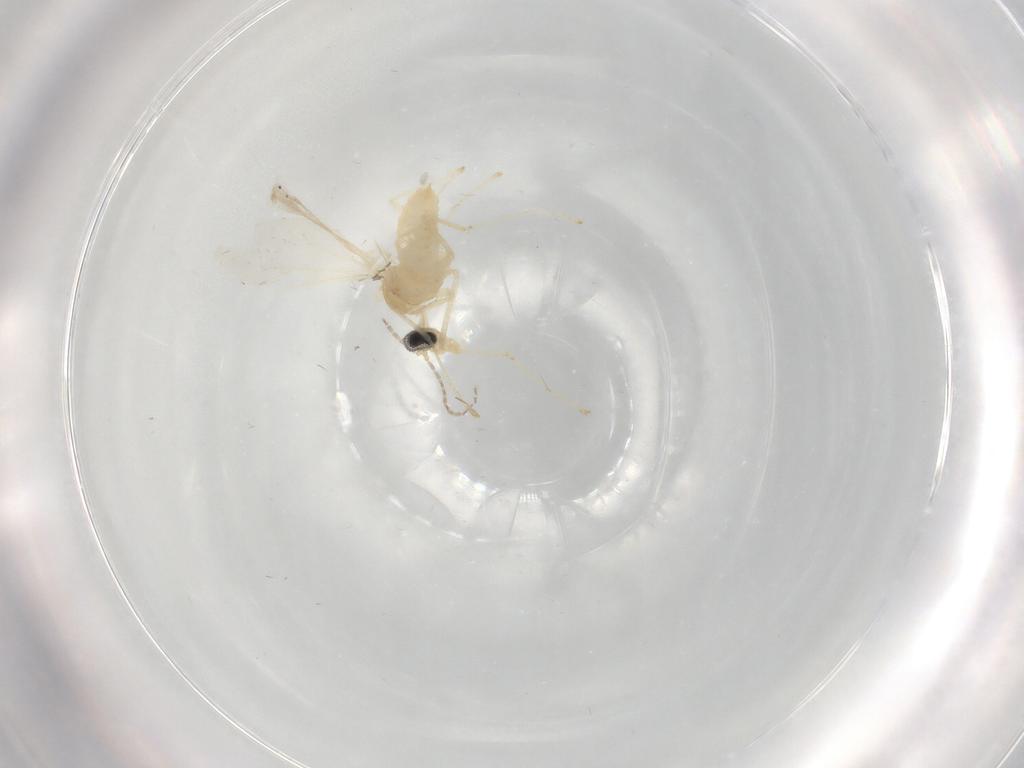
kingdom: Animalia
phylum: Arthropoda
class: Insecta
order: Diptera
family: Cecidomyiidae
